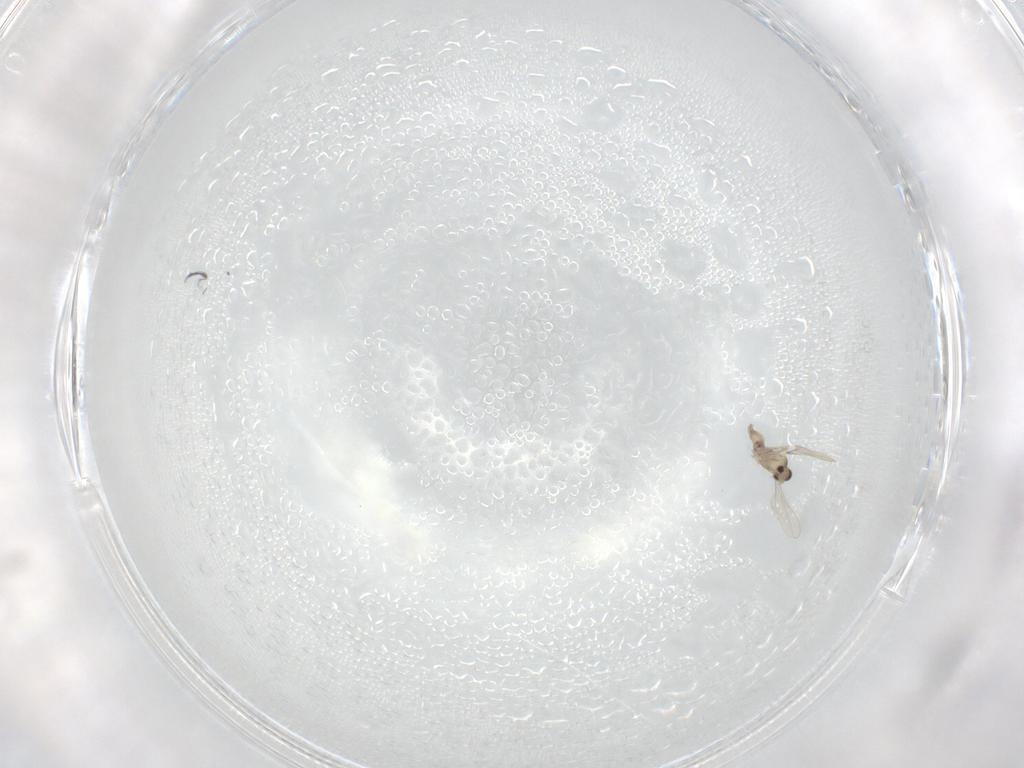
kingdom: Animalia
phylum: Arthropoda
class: Insecta
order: Diptera
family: Cecidomyiidae
